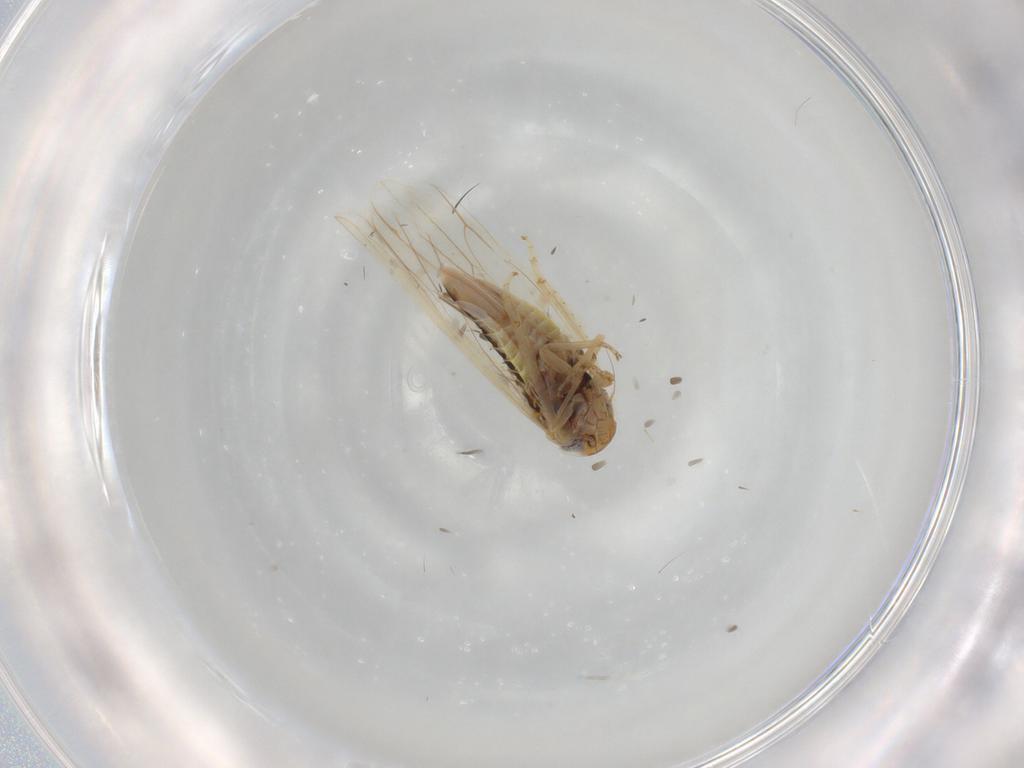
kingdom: Animalia
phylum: Arthropoda
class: Insecta
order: Hemiptera
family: Cicadellidae
